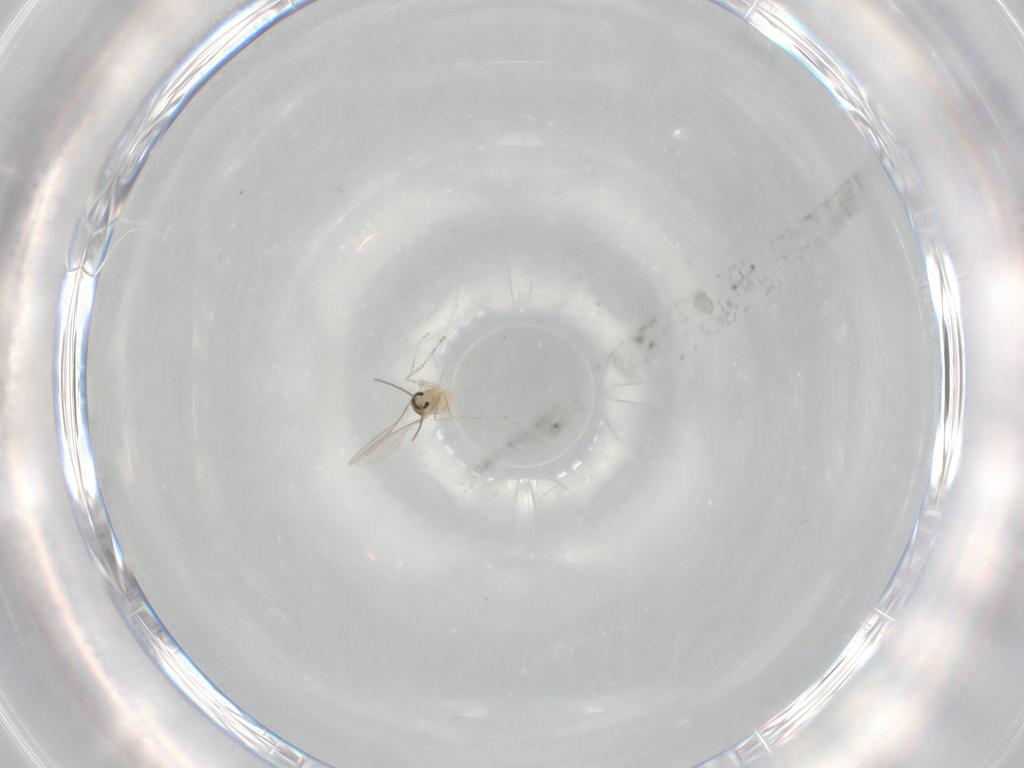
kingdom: Animalia
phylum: Arthropoda
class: Insecta
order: Diptera
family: Cecidomyiidae
